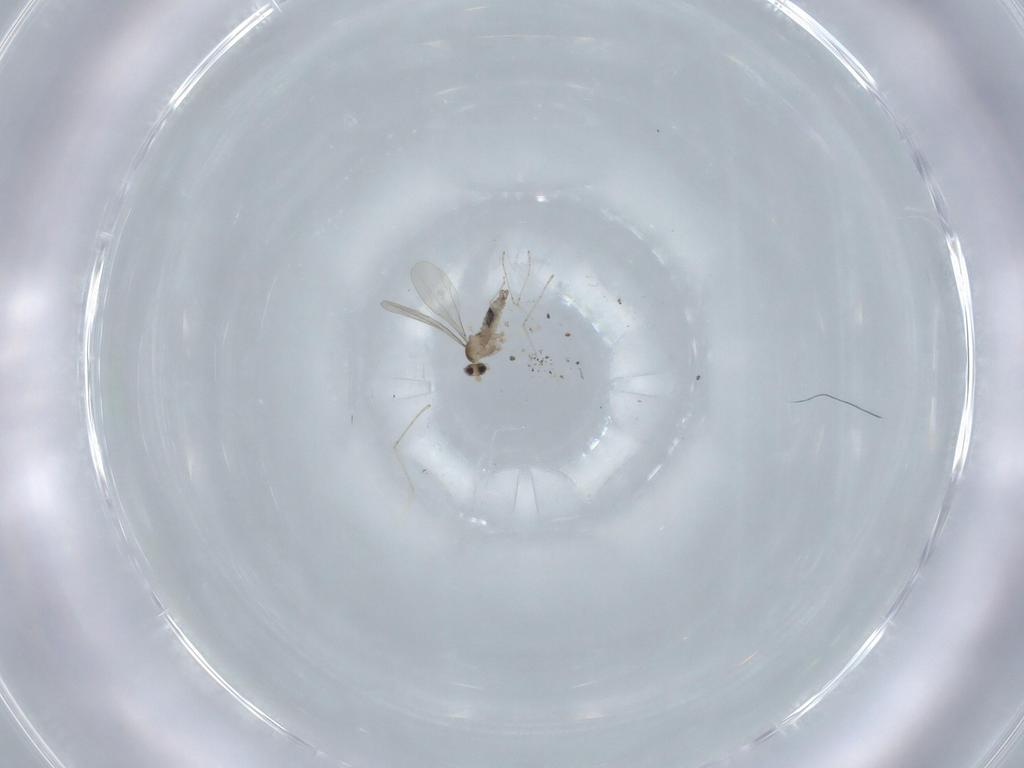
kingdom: Animalia
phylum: Arthropoda
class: Insecta
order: Diptera
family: Cecidomyiidae
